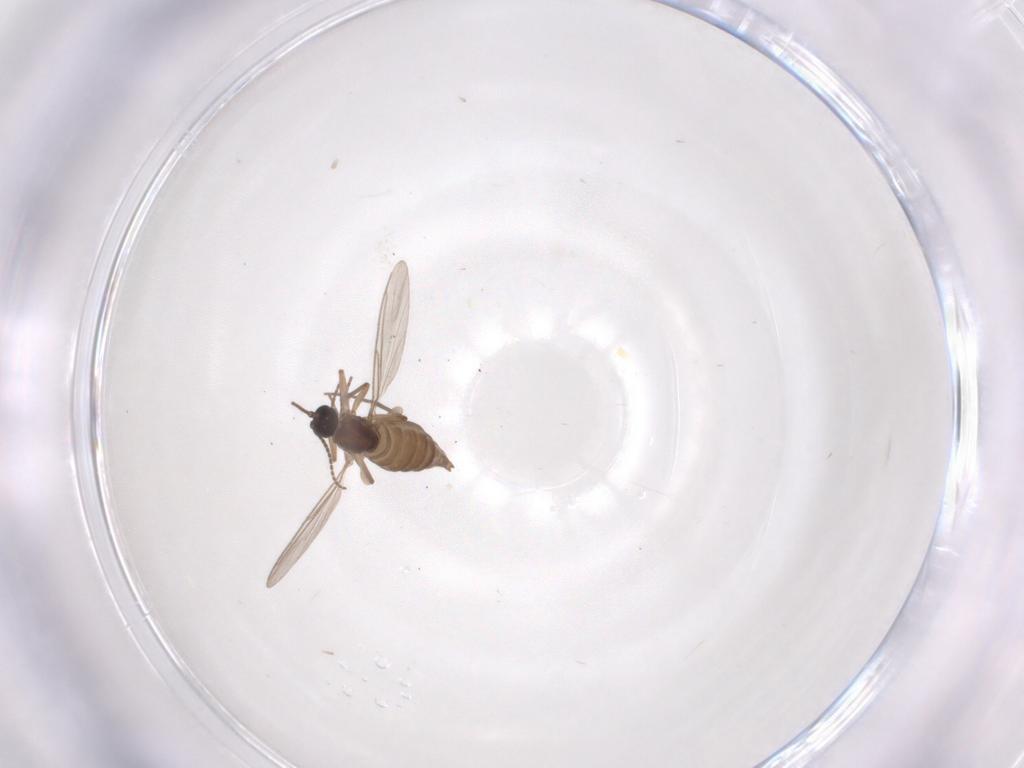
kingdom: Animalia
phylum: Arthropoda
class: Insecta
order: Diptera
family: Sciaridae
